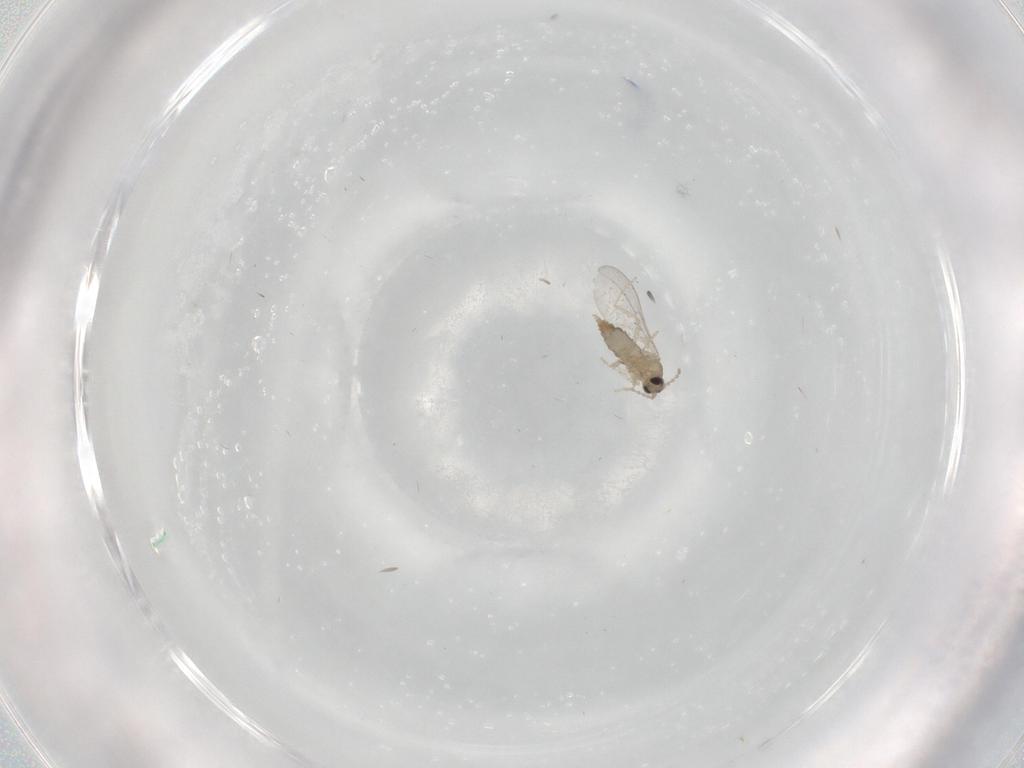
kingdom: Animalia
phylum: Arthropoda
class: Insecta
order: Diptera
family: Cecidomyiidae
